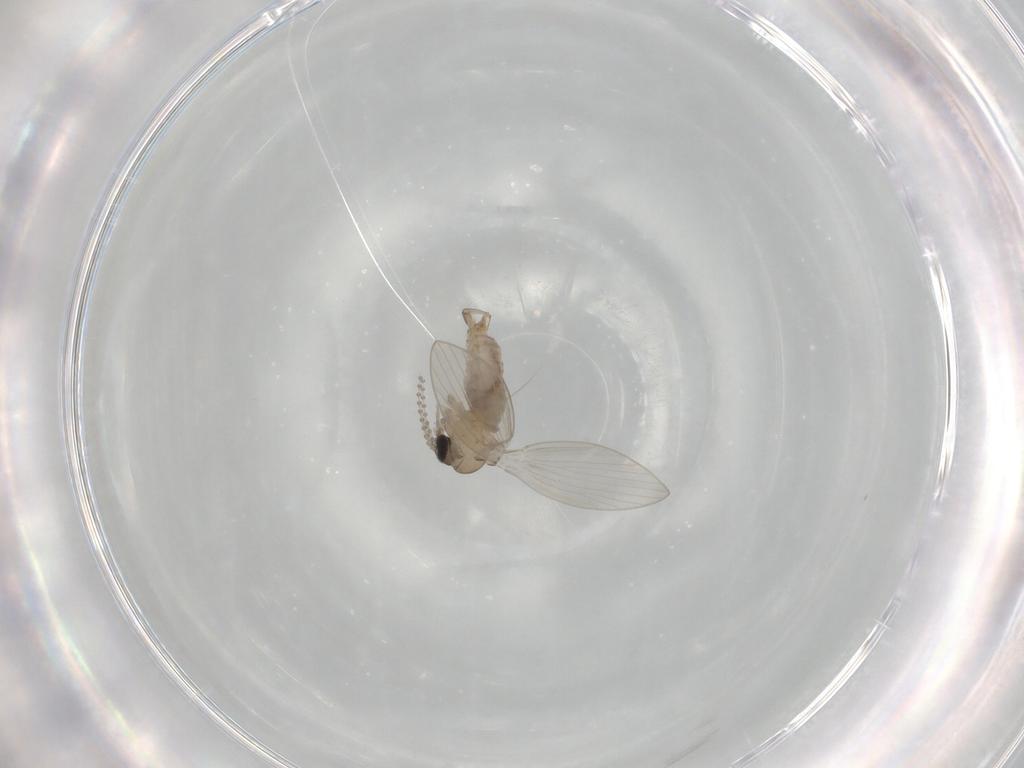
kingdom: Animalia
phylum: Arthropoda
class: Insecta
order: Diptera
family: Psychodidae
